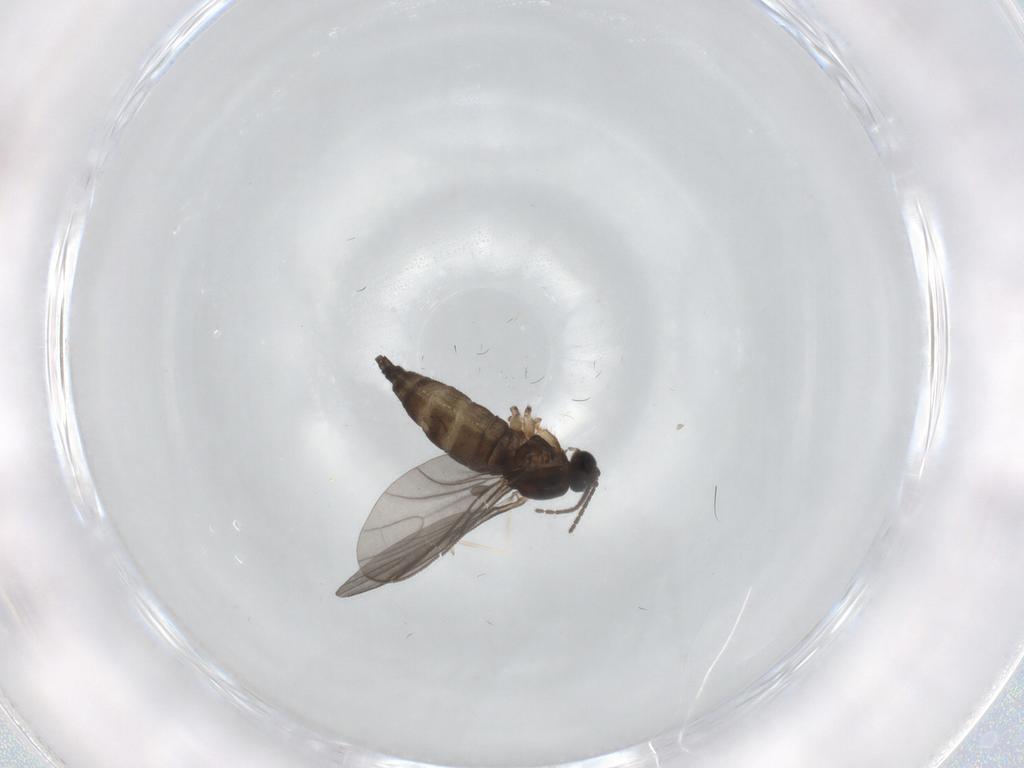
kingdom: Animalia
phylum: Arthropoda
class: Insecta
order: Diptera
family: Sciaridae
